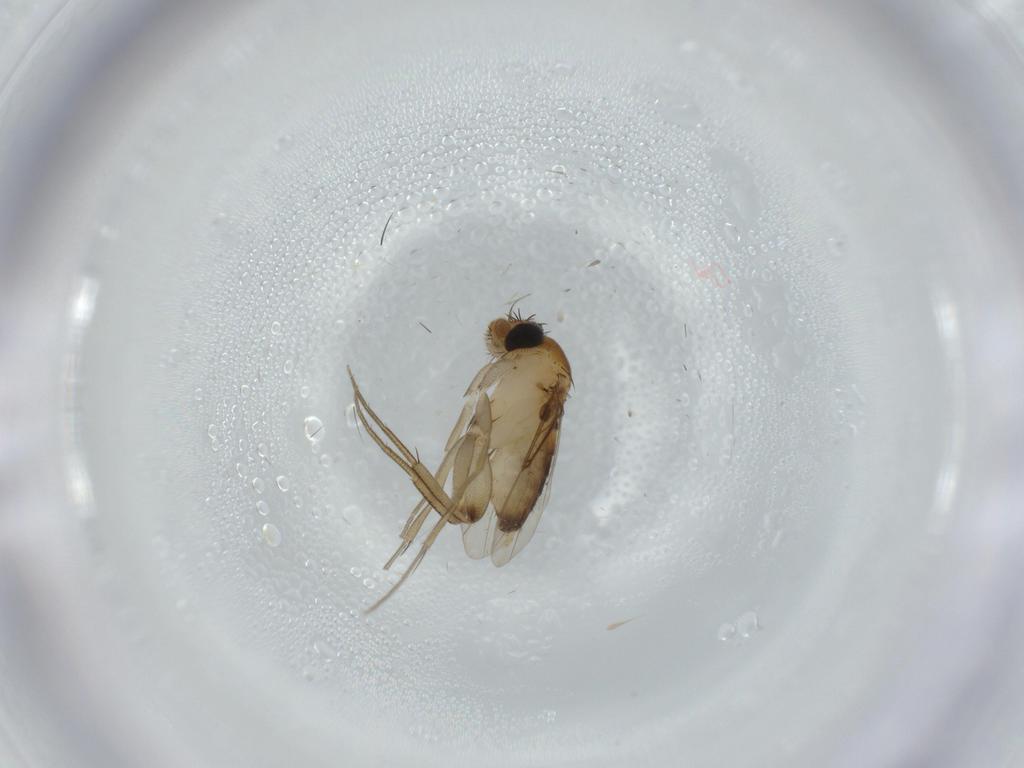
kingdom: Animalia
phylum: Arthropoda
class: Insecta
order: Diptera
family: Phoridae
